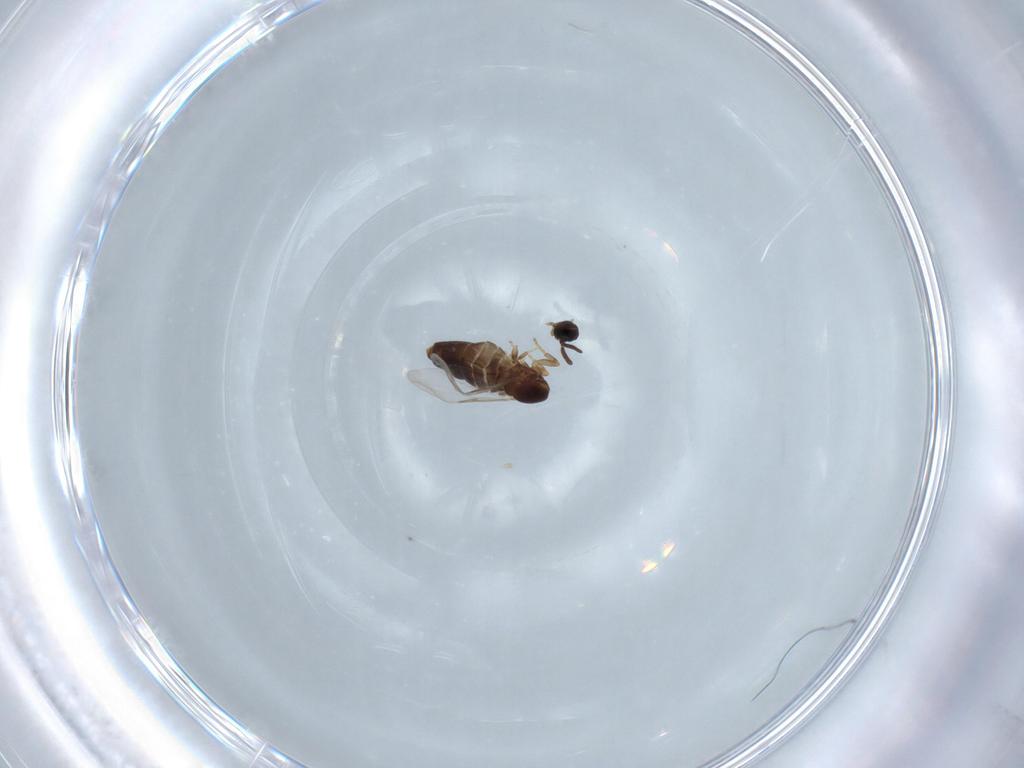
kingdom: Animalia
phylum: Arthropoda
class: Insecta
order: Diptera
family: Scatopsidae
